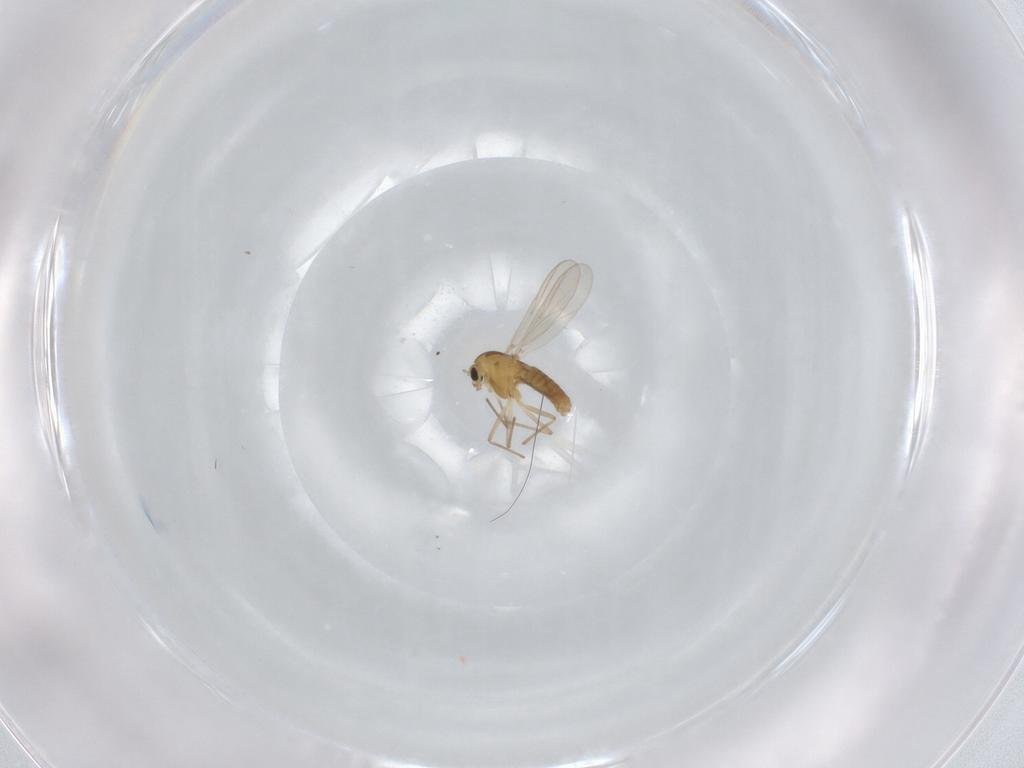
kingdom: Animalia
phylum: Arthropoda
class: Insecta
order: Diptera
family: Chironomidae
